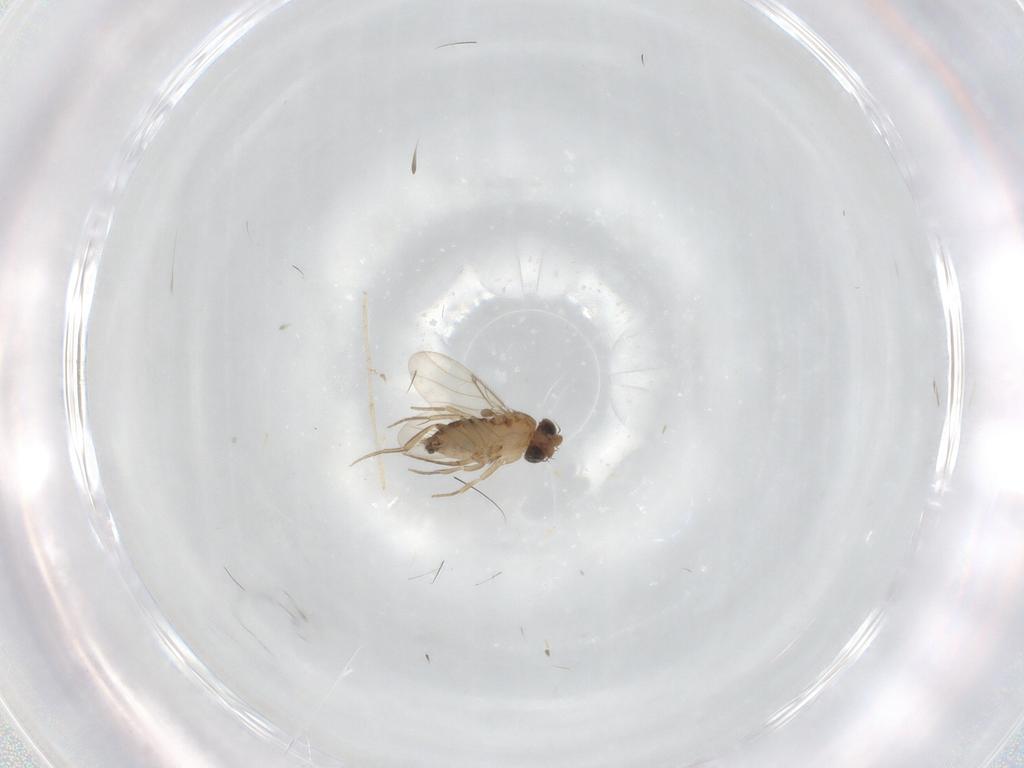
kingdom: Animalia
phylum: Arthropoda
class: Insecta
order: Diptera
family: Phoridae
